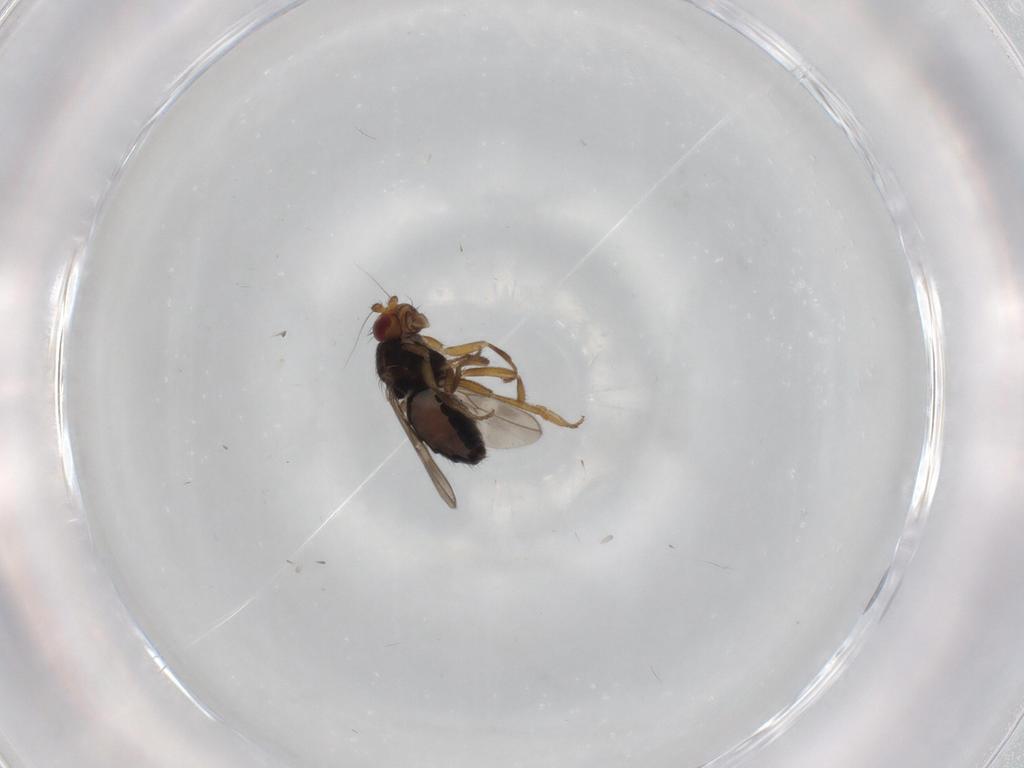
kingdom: Animalia
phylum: Arthropoda
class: Insecta
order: Diptera
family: Sphaeroceridae
